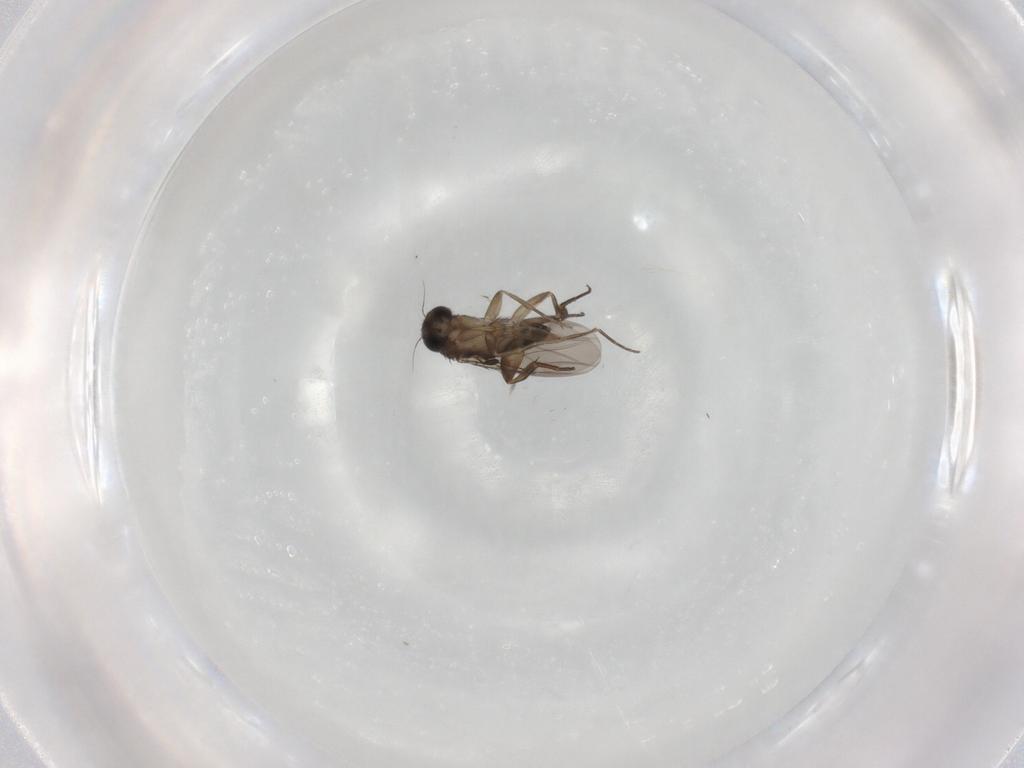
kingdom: Animalia
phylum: Arthropoda
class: Insecta
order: Diptera
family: Phoridae
